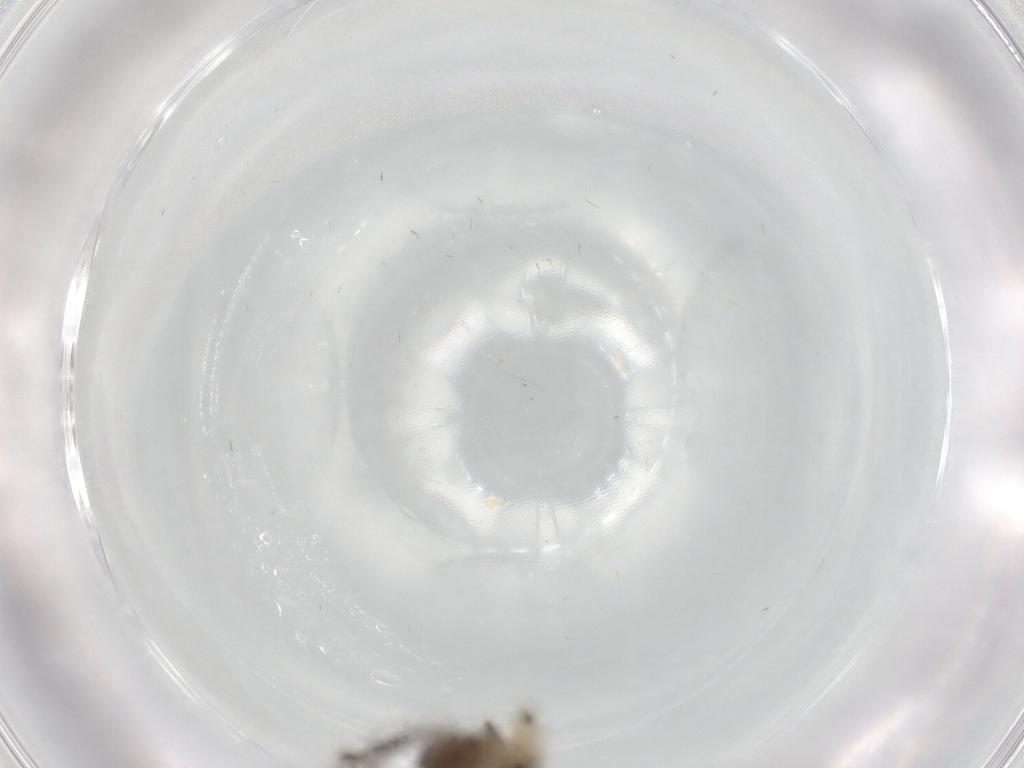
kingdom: Animalia
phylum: Arthropoda
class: Insecta
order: Diptera
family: Ceratopogonidae
